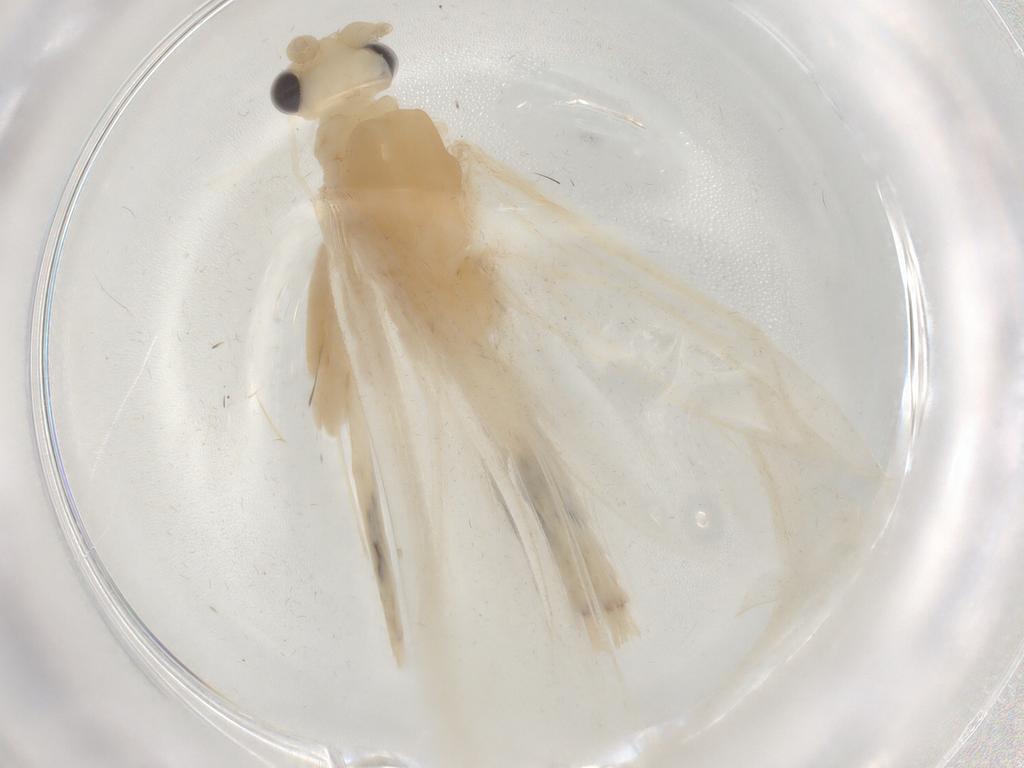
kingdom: Animalia
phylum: Arthropoda
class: Insecta
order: Trichoptera
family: Leptoceridae
